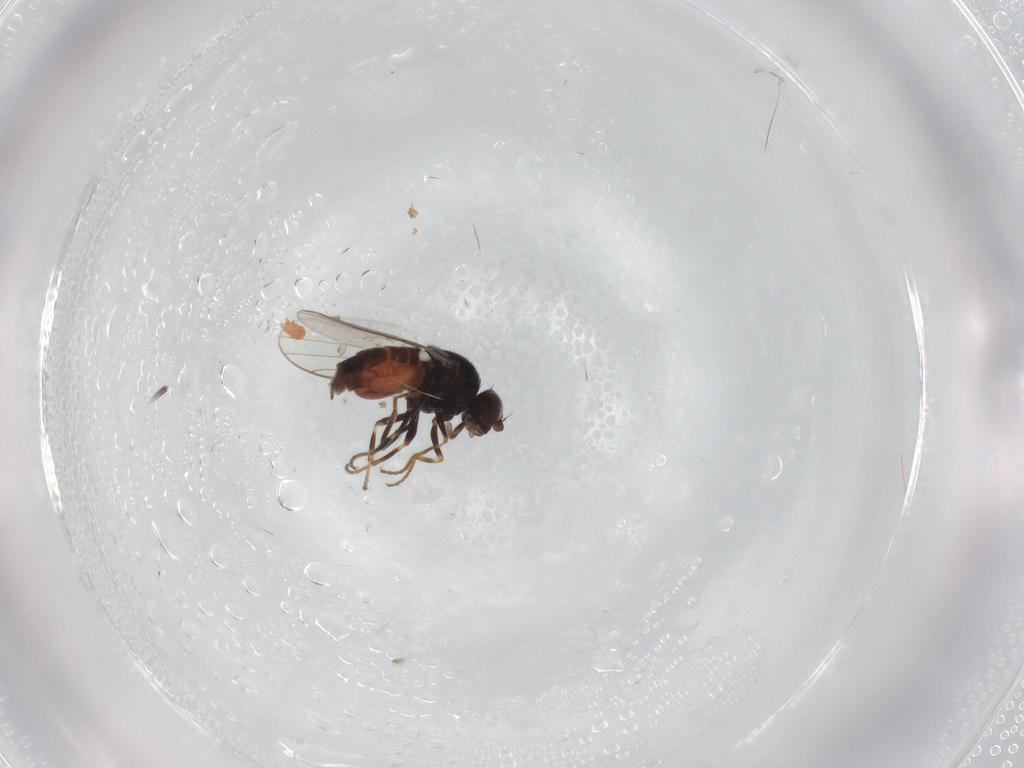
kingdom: Animalia
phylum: Arthropoda
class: Insecta
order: Diptera
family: Chloropidae
